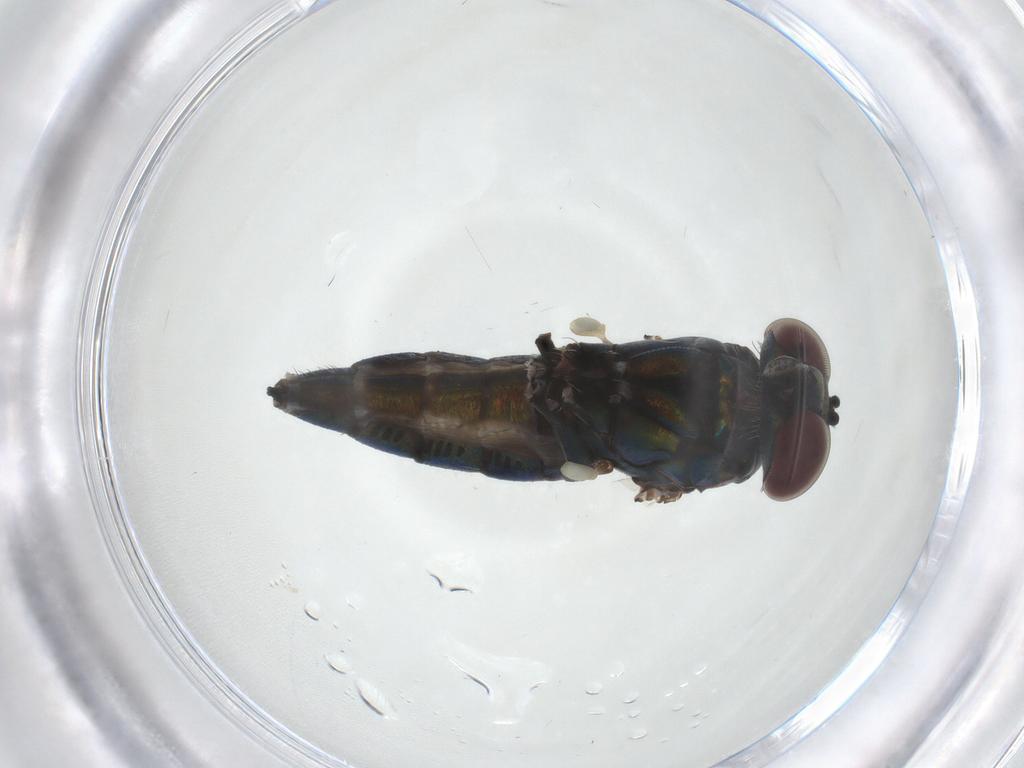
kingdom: Animalia
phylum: Arthropoda
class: Insecta
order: Diptera
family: Dolichopodidae
